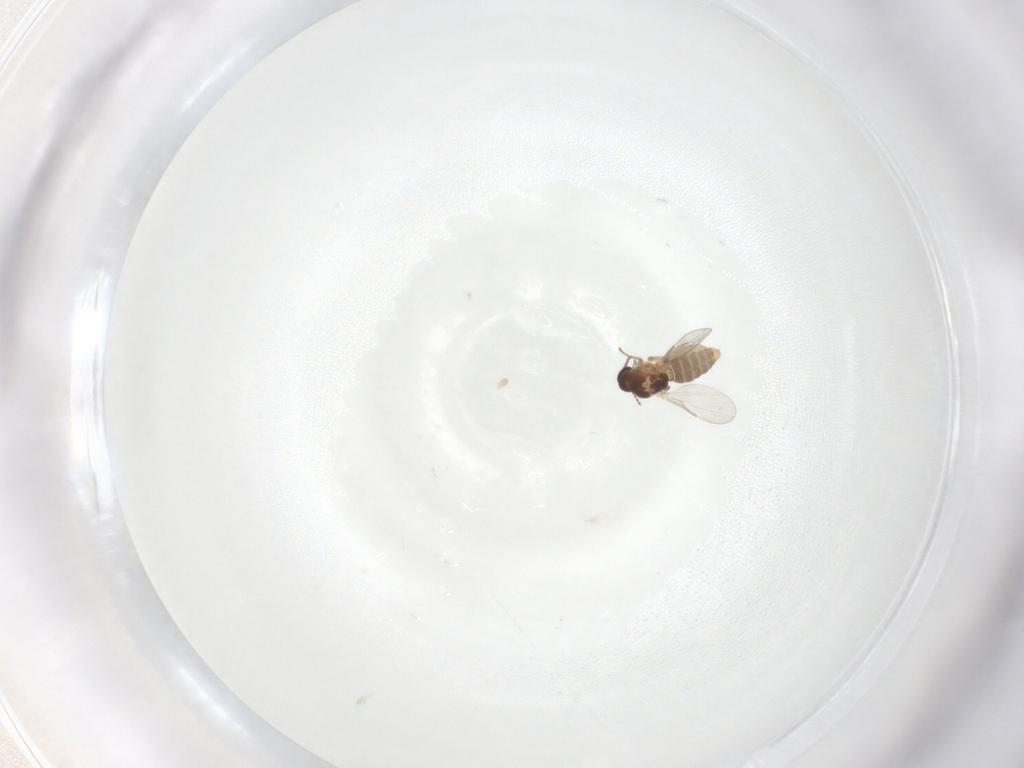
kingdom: Animalia
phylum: Arthropoda
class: Insecta
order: Diptera
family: Ceratopogonidae
